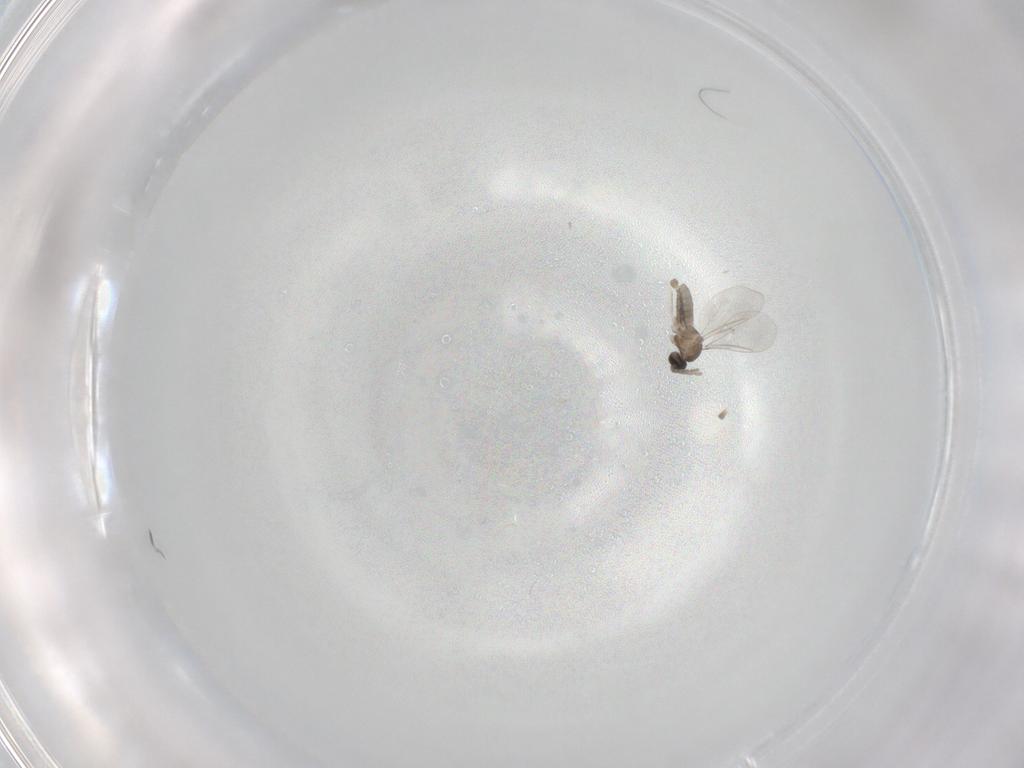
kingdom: Animalia
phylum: Arthropoda
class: Insecta
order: Diptera
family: Cecidomyiidae
